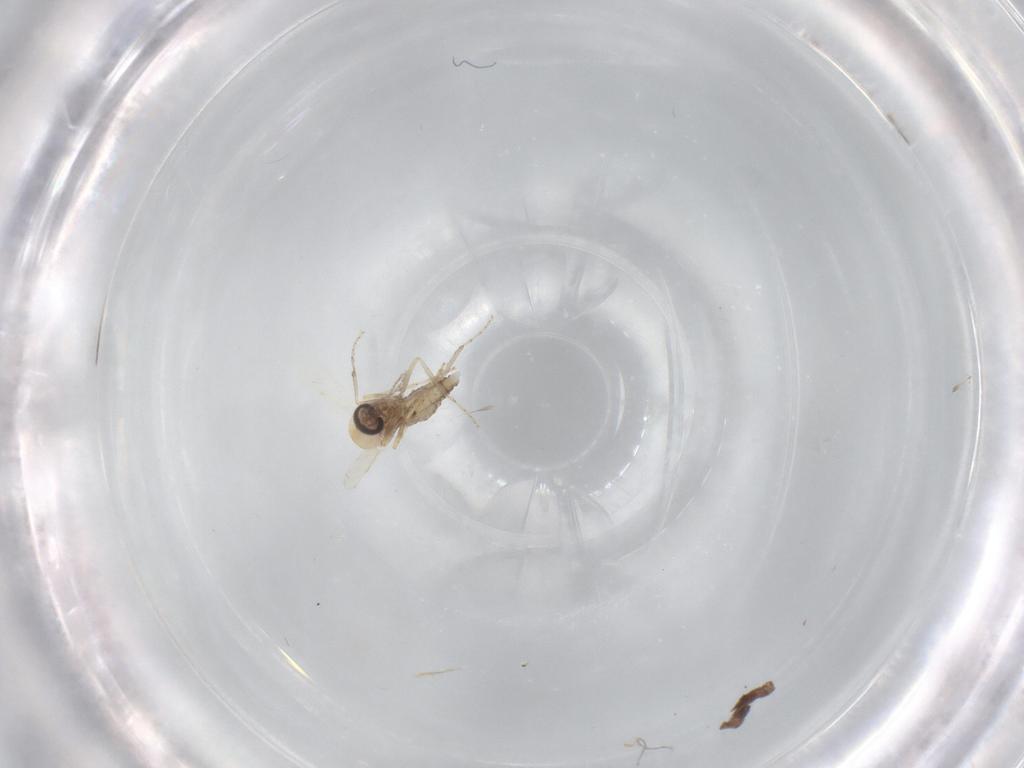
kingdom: Animalia
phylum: Arthropoda
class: Insecta
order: Diptera
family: Ceratopogonidae
